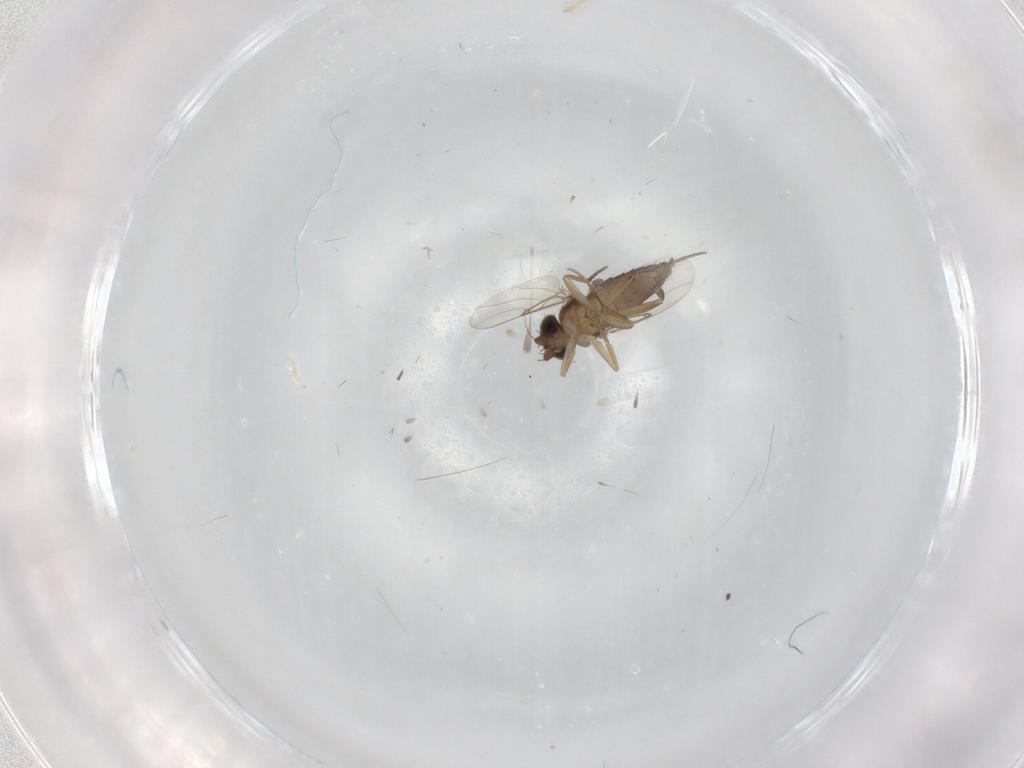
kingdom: Animalia
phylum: Arthropoda
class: Insecta
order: Diptera
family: Phoridae
